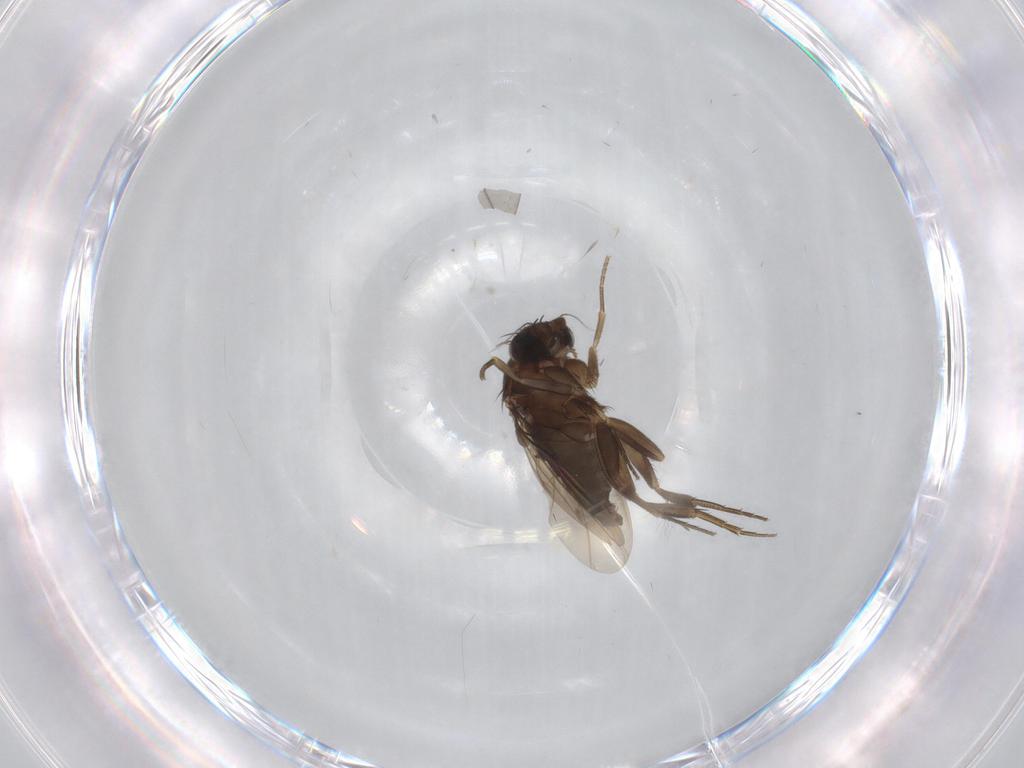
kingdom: Animalia
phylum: Arthropoda
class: Insecta
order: Diptera
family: Phoridae
